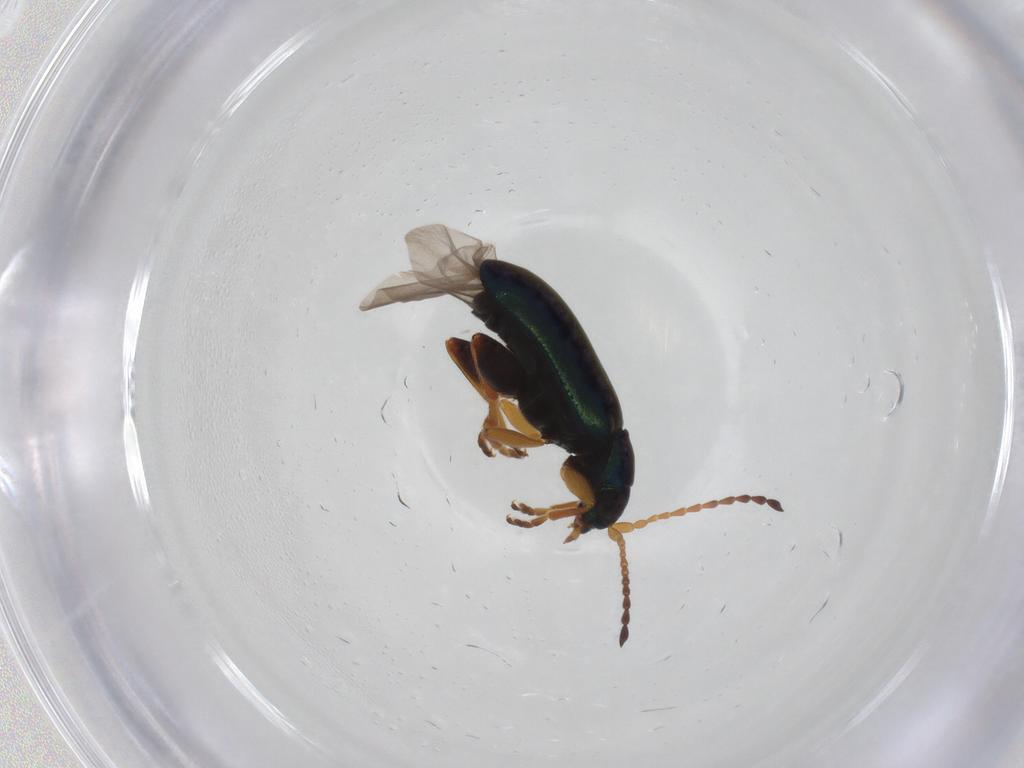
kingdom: Animalia
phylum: Arthropoda
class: Insecta
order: Coleoptera
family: Chrysomelidae
